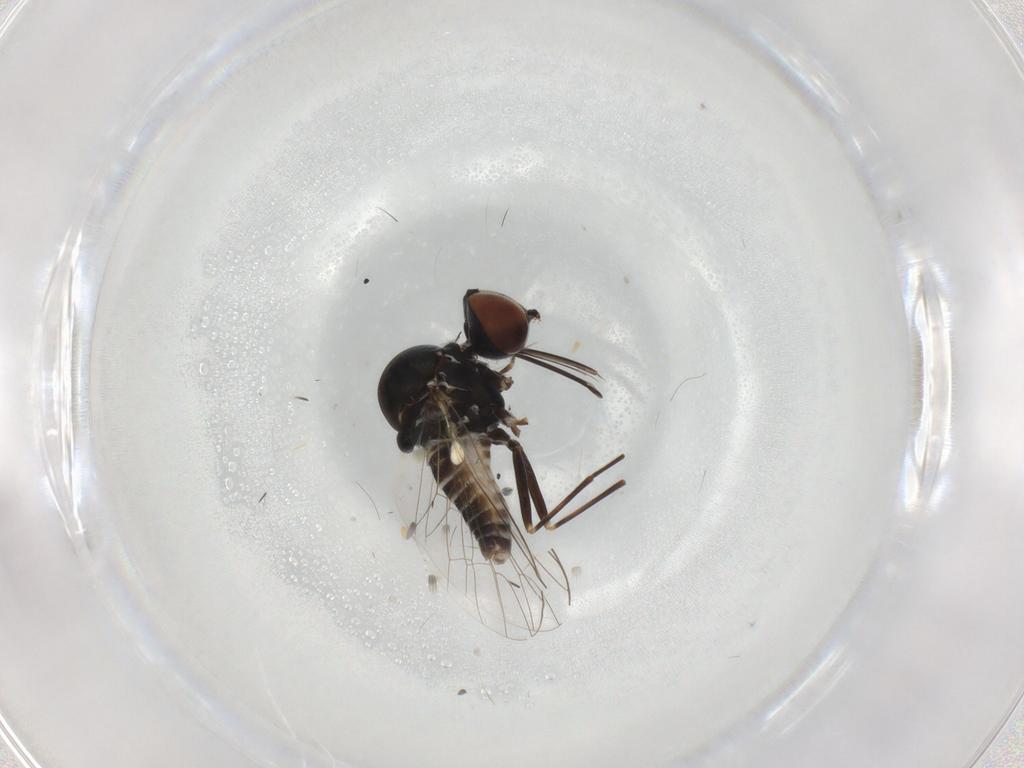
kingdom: Animalia
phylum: Arthropoda
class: Insecta
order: Diptera
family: Bombyliidae
